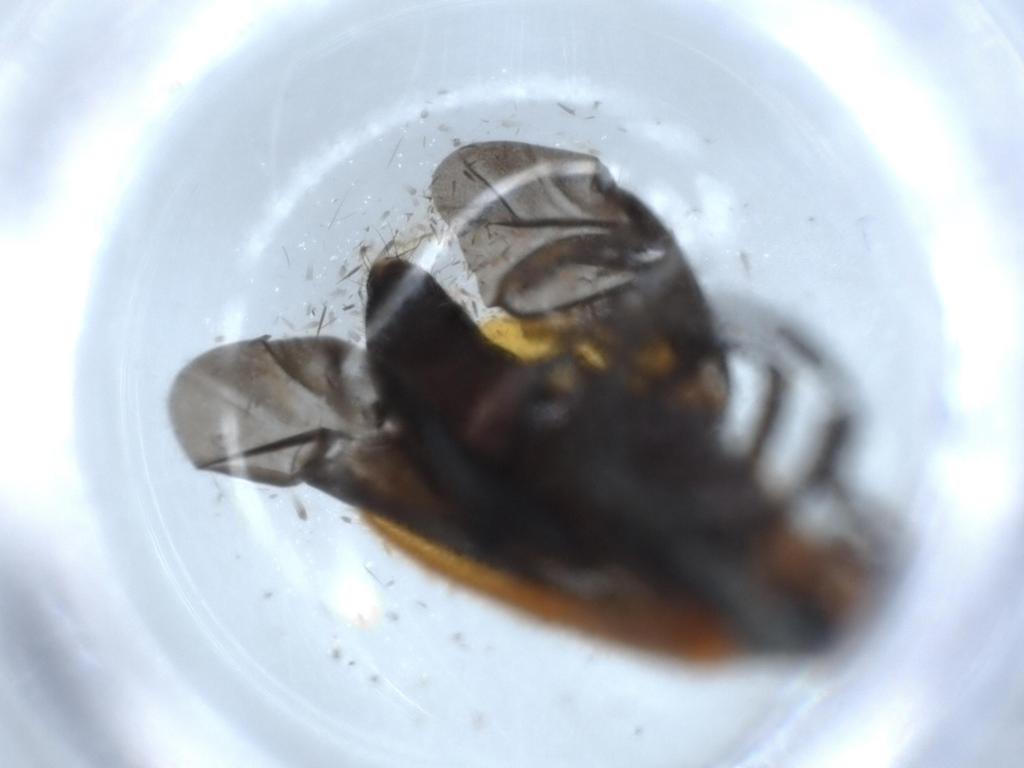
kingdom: Animalia
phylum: Arthropoda
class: Insecta
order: Coleoptera
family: Cleridae
